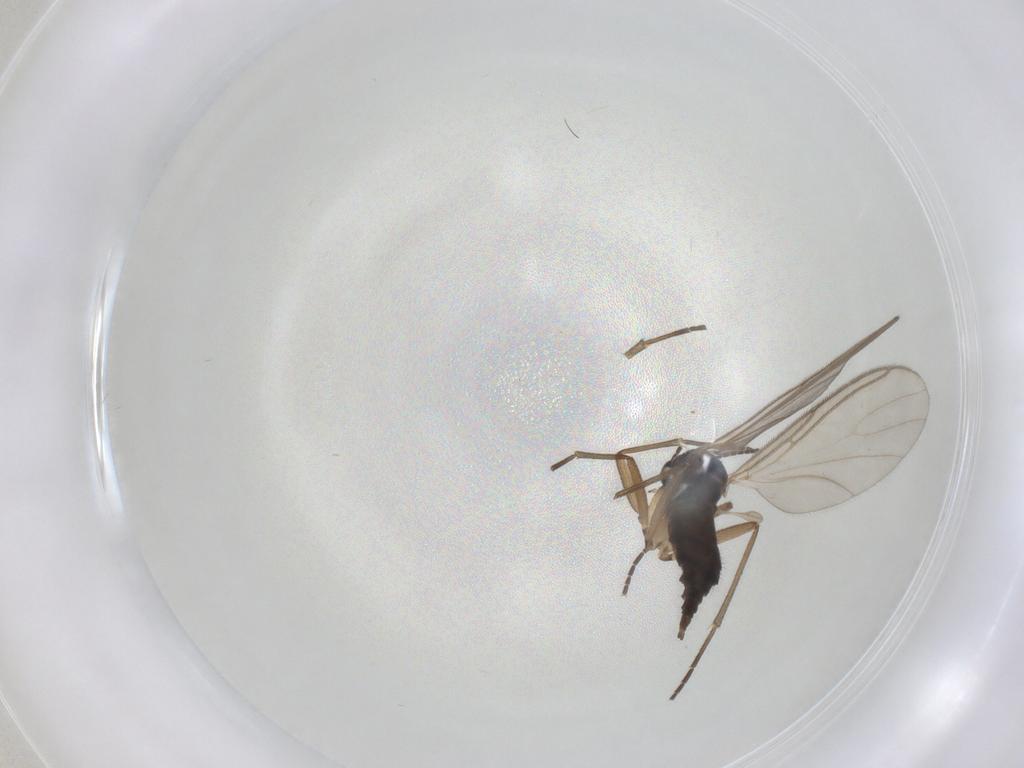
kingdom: Animalia
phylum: Arthropoda
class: Insecta
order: Diptera
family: Sciaridae
